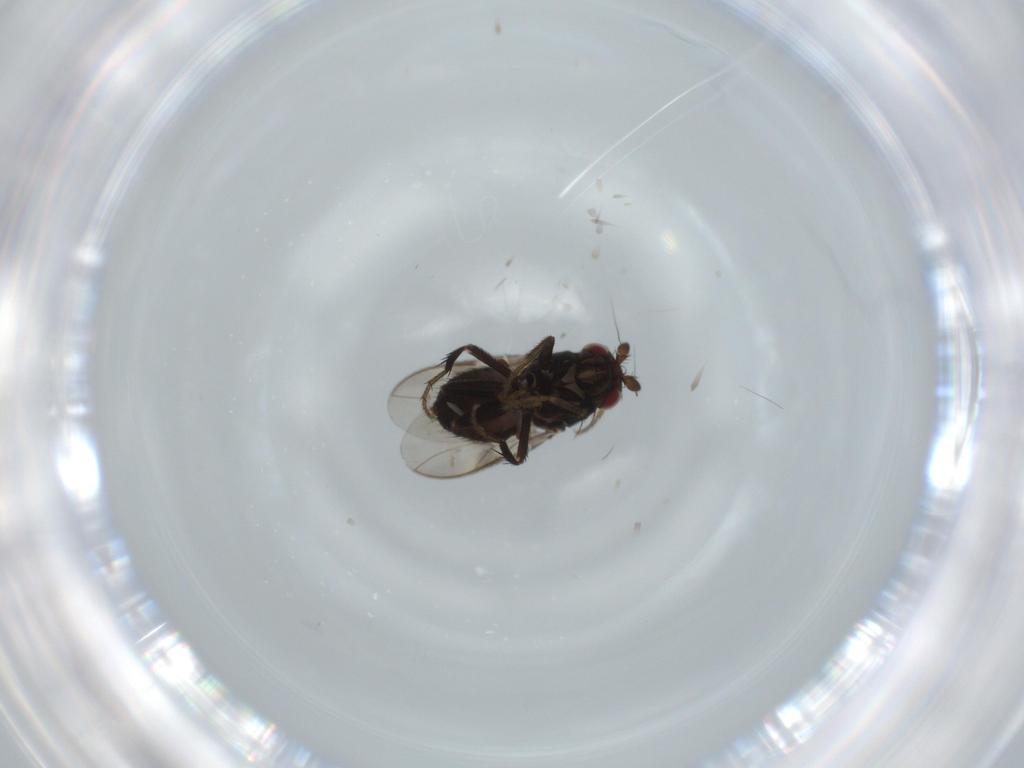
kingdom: Animalia
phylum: Arthropoda
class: Insecta
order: Diptera
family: Sphaeroceridae
